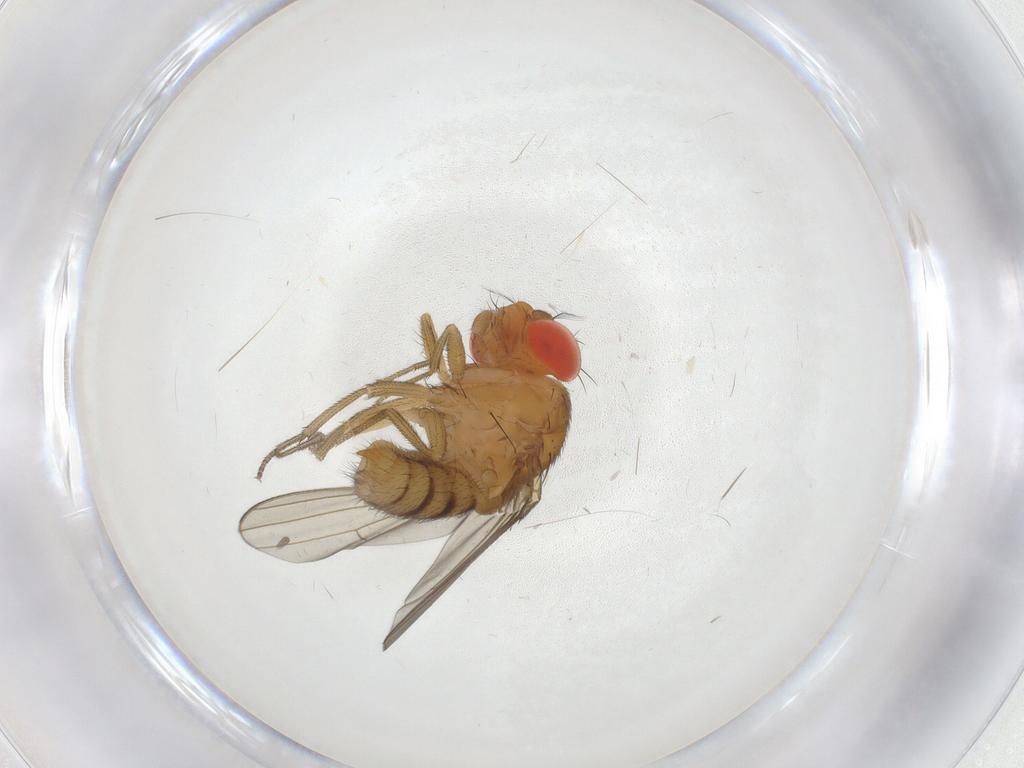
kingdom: Animalia
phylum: Arthropoda
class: Insecta
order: Diptera
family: Drosophilidae
